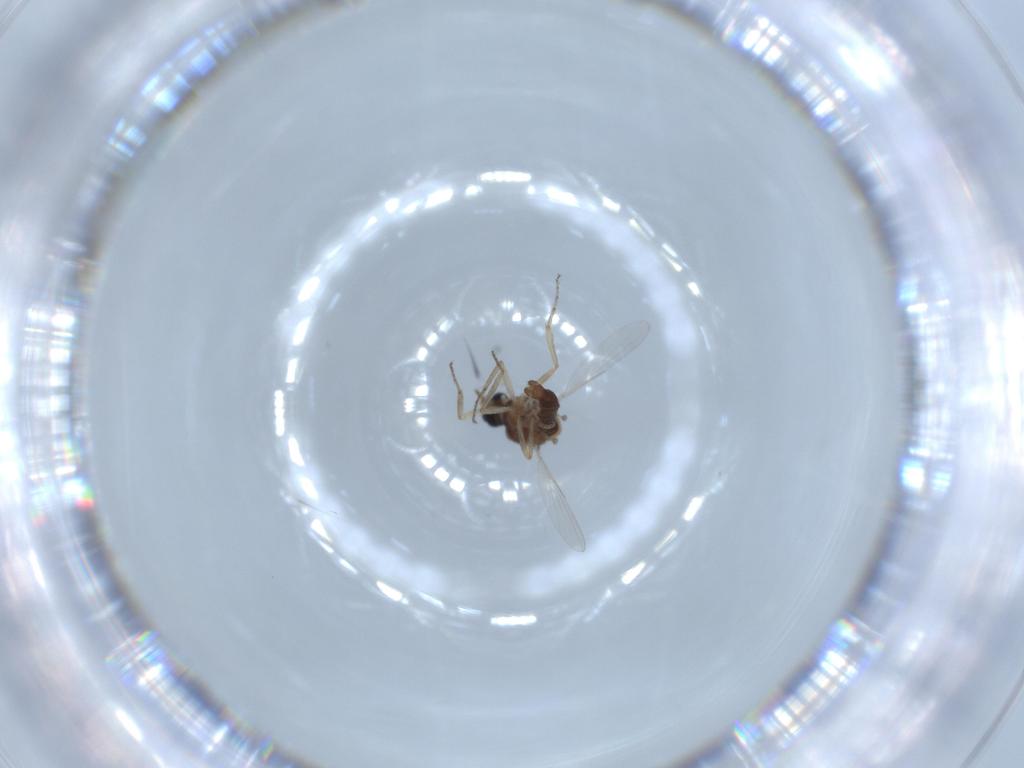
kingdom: Animalia
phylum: Arthropoda
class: Insecta
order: Diptera
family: Ceratopogonidae
